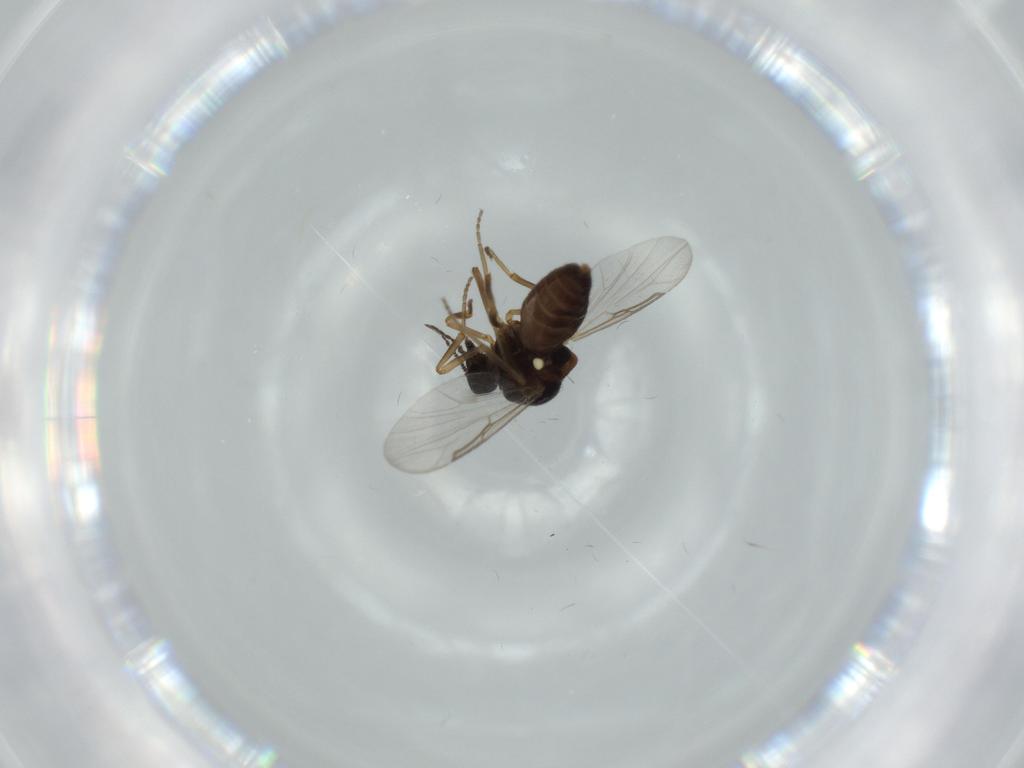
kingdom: Animalia
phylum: Arthropoda
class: Insecta
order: Diptera
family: Ceratopogonidae
